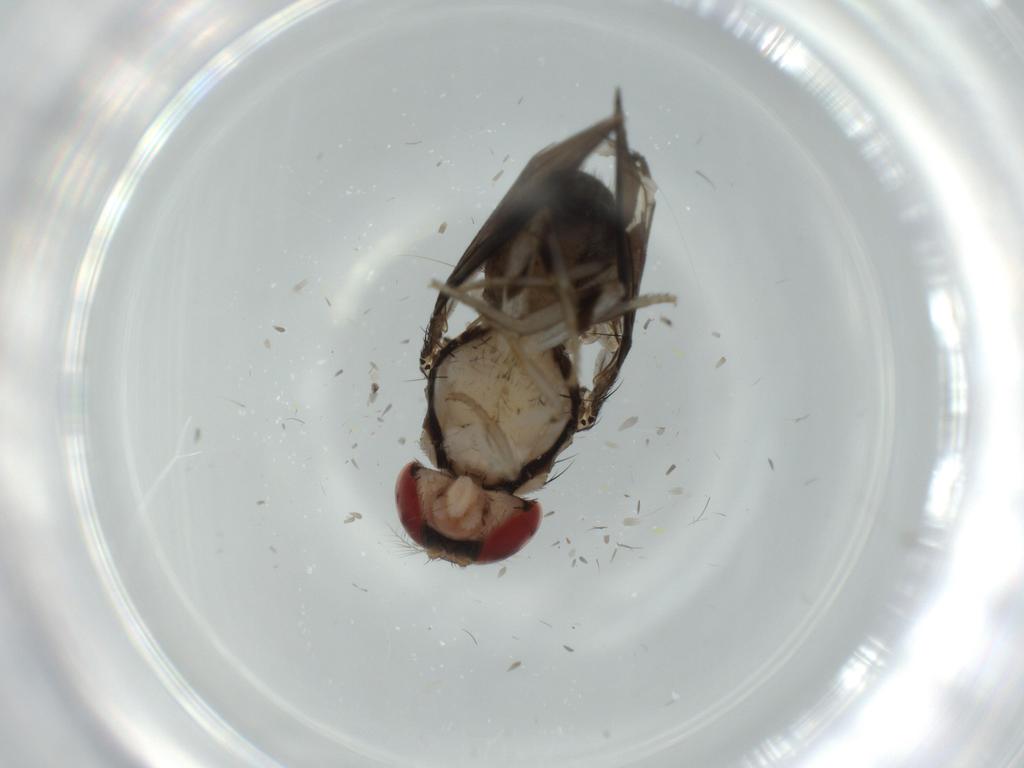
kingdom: Animalia
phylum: Arthropoda
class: Insecta
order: Diptera
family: Drosophilidae
